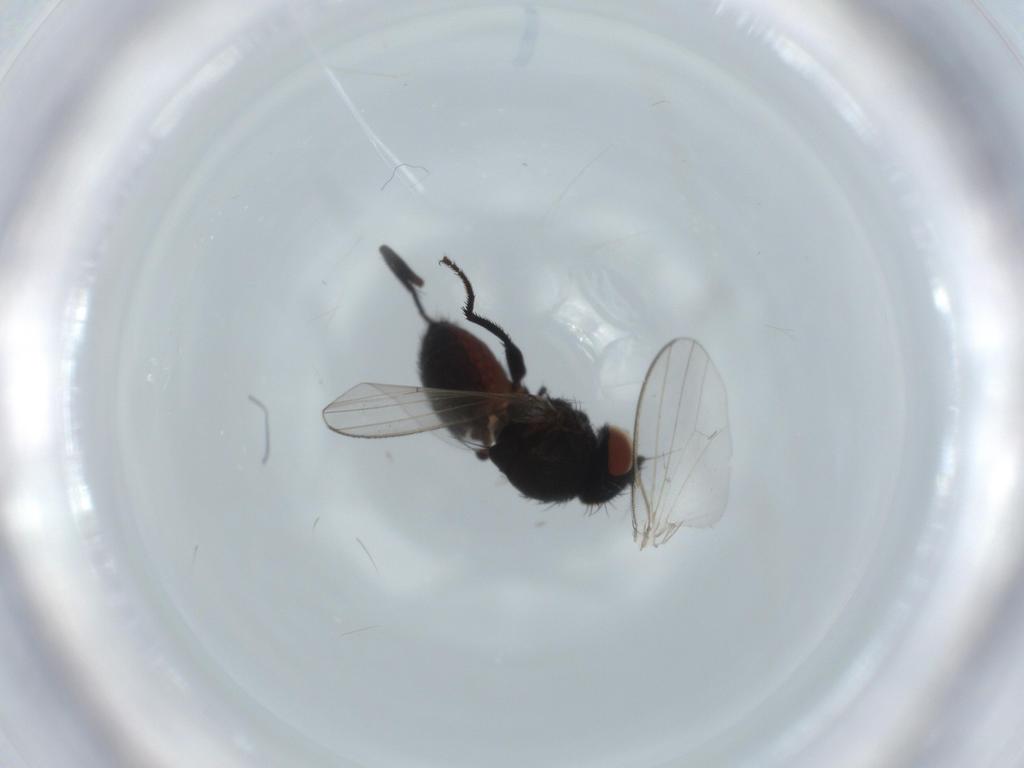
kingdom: Animalia
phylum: Arthropoda
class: Insecta
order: Diptera
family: Milichiidae
